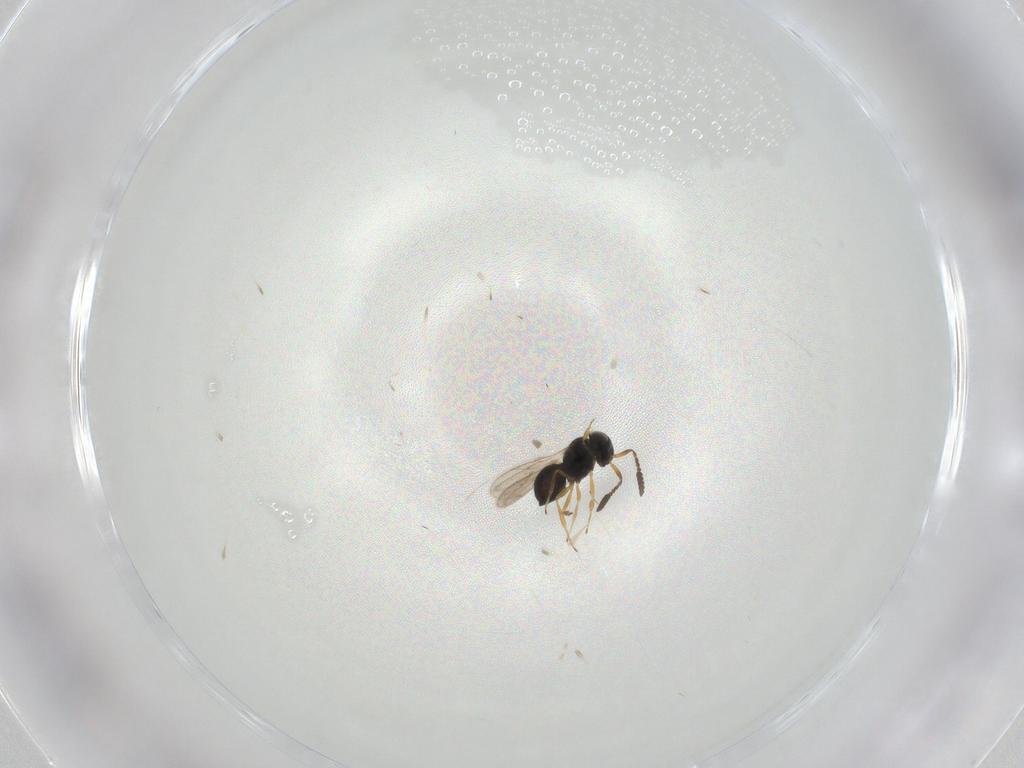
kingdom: Animalia
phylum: Arthropoda
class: Insecta
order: Hymenoptera
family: Scelionidae
